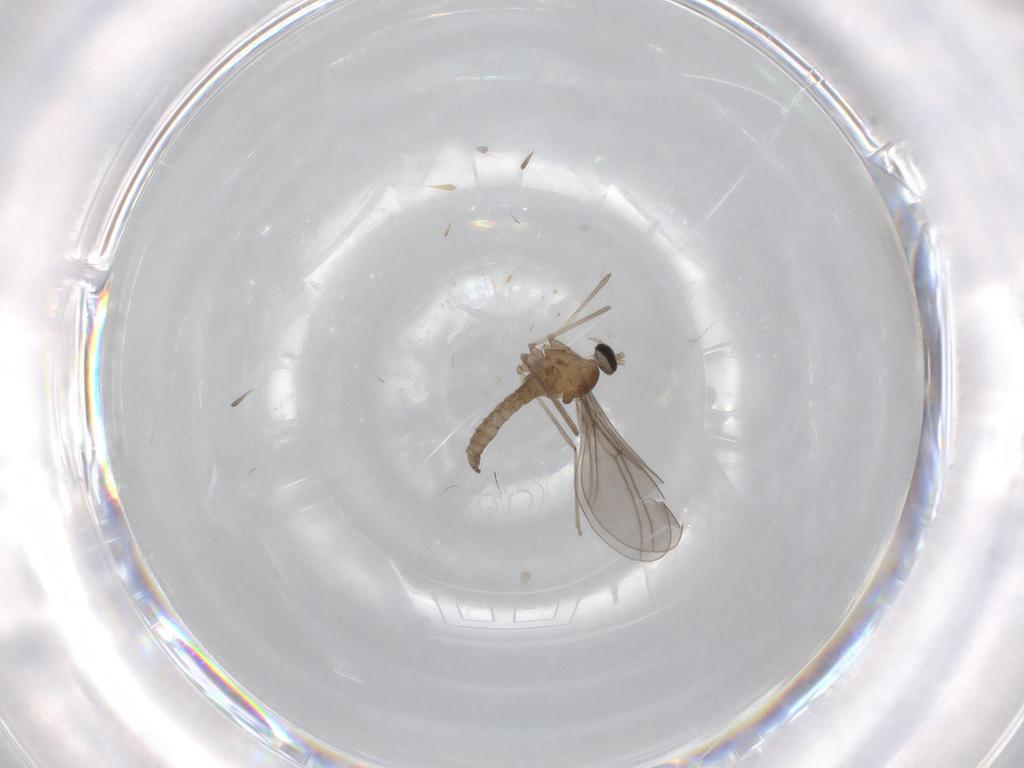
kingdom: Animalia
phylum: Arthropoda
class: Insecta
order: Diptera
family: Cecidomyiidae
